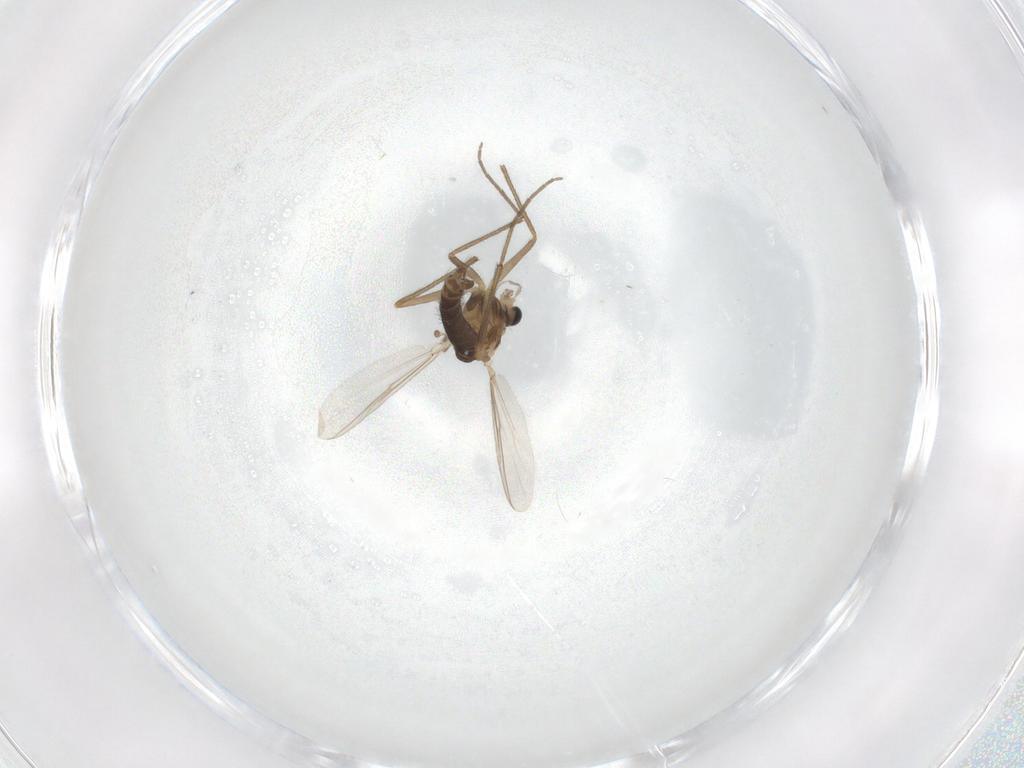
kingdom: Animalia
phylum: Arthropoda
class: Insecta
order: Diptera
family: Chironomidae
